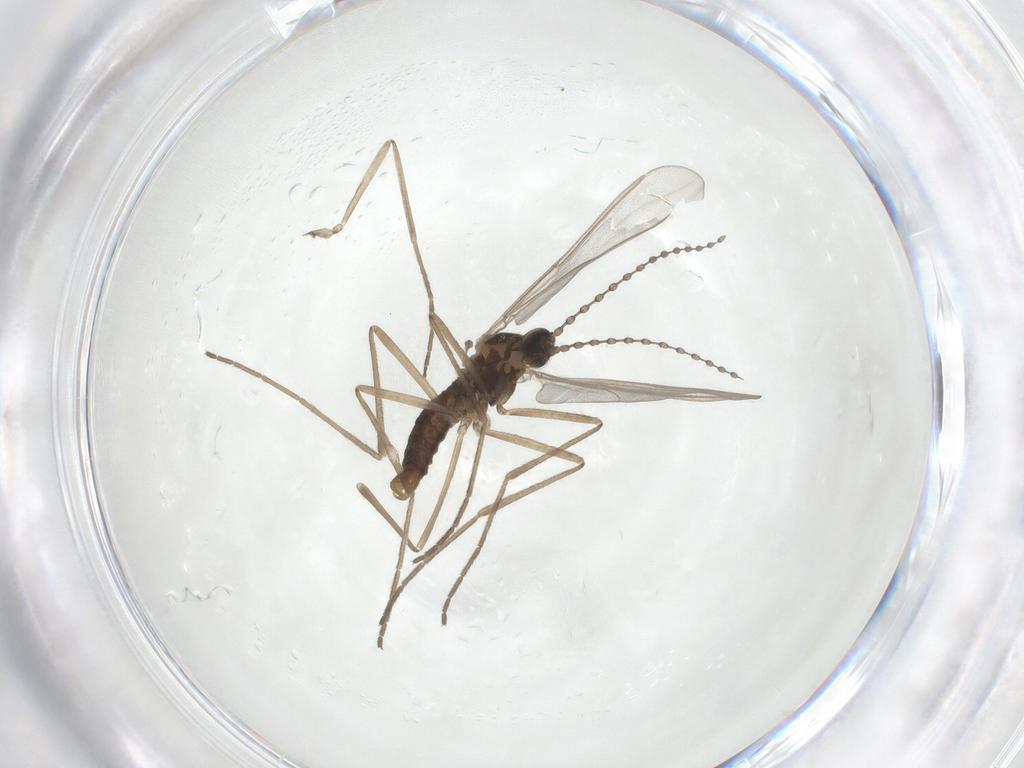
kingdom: Animalia
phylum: Arthropoda
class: Insecta
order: Diptera
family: Cecidomyiidae
